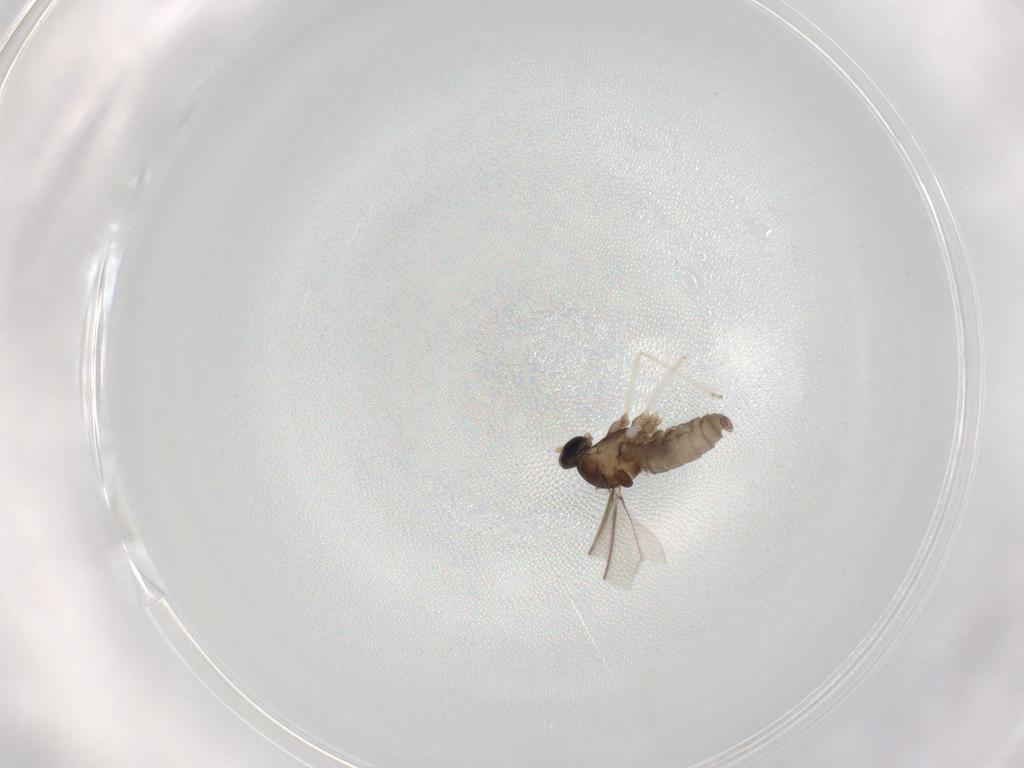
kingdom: Animalia
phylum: Arthropoda
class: Insecta
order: Diptera
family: Cecidomyiidae
